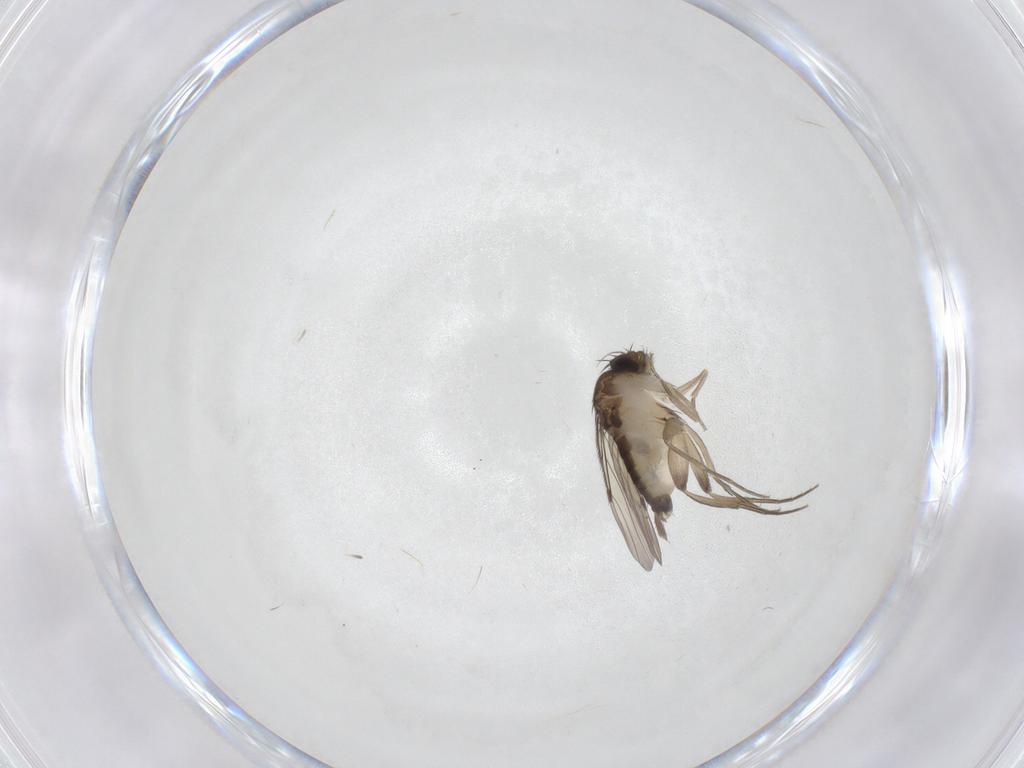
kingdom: Animalia
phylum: Arthropoda
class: Insecta
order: Diptera
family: Phoridae
